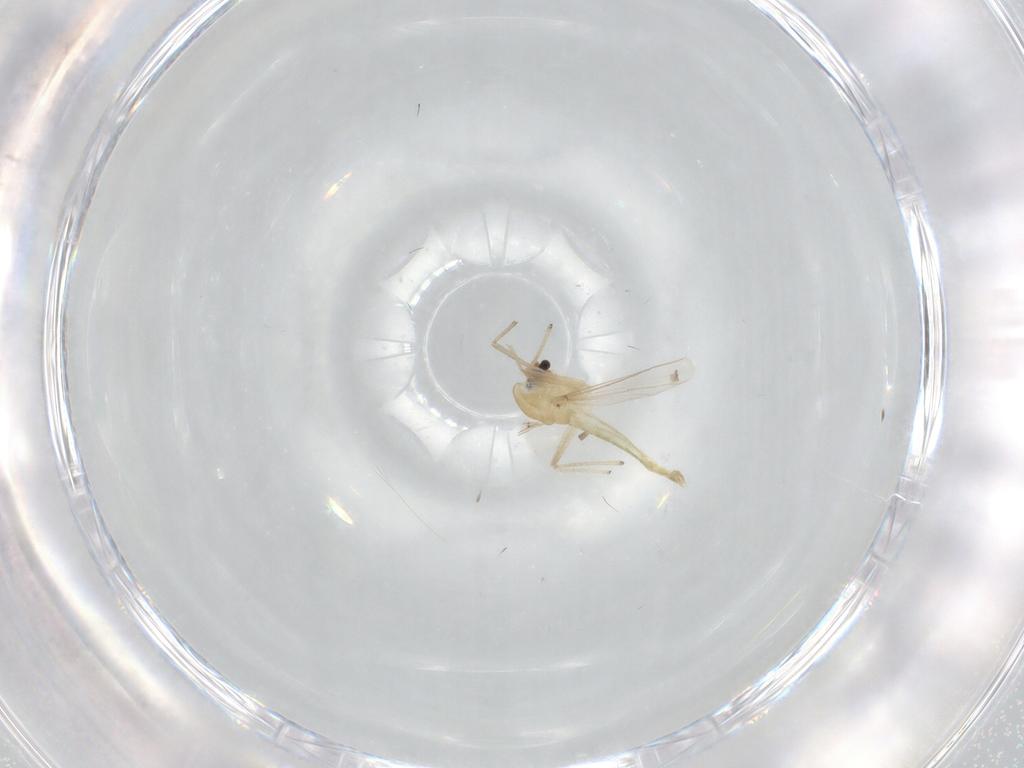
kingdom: Animalia
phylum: Arthropoda
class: Insecta
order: Diptera
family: Chironomidae
